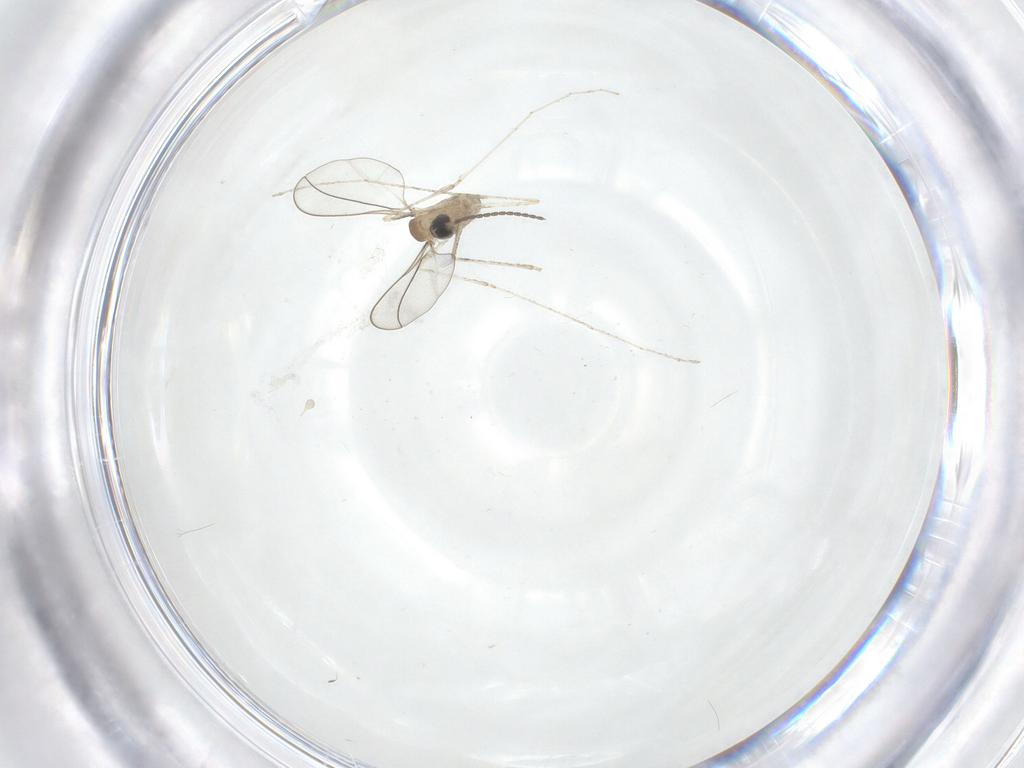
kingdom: Animalia
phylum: Arthropoda
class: Insecta
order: Diptera
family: Cecidomyiidae
